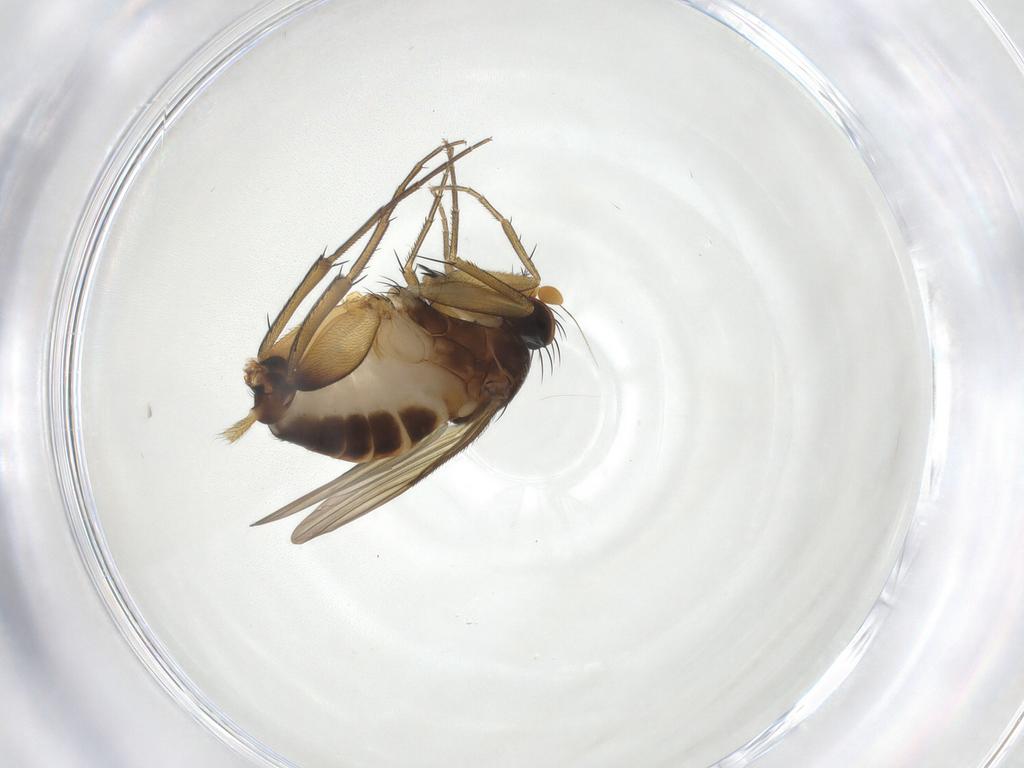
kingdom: Animalia
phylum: Arthropoda
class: Insecta
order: Diptera
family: Phoridae
